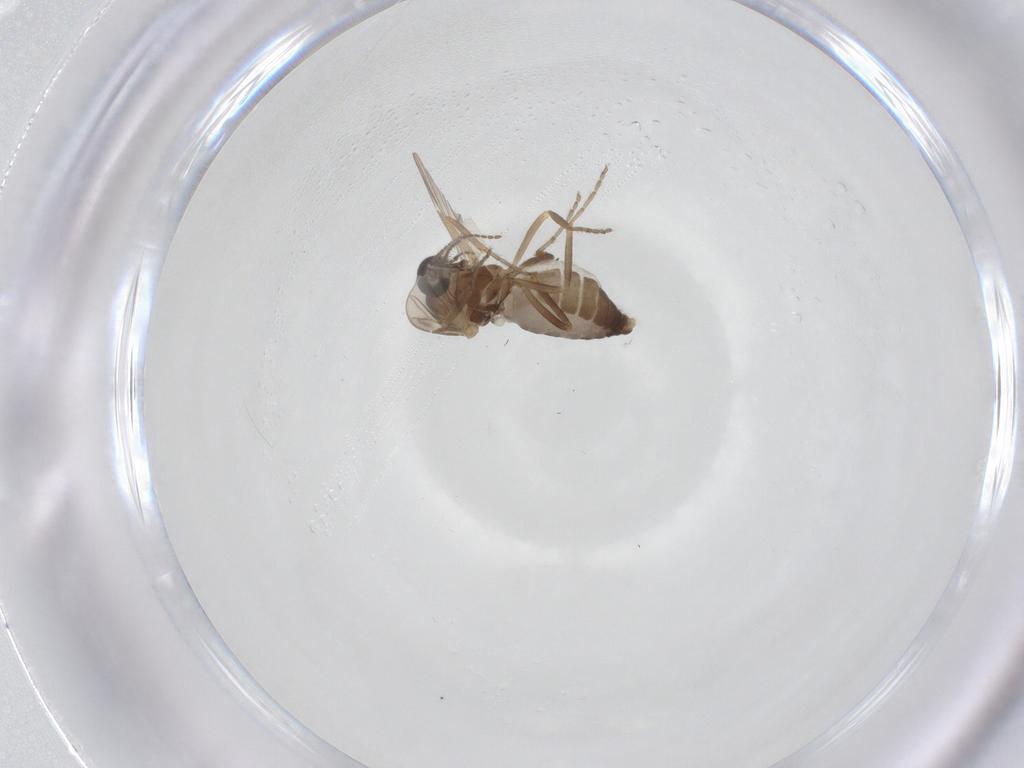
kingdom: Animalia
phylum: Arthropoda
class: Insecta
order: Diptera
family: Ceratopogonidae
